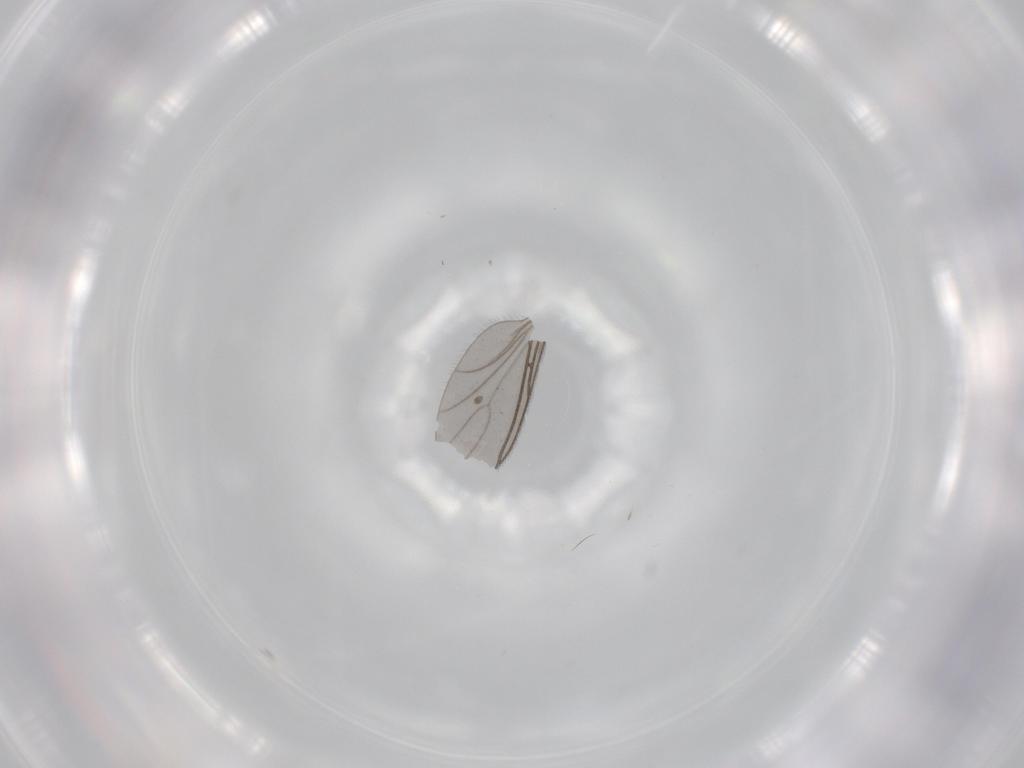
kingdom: Animalia
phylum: Arthropoda
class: Insecta
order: Diptera
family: Sciaridae
